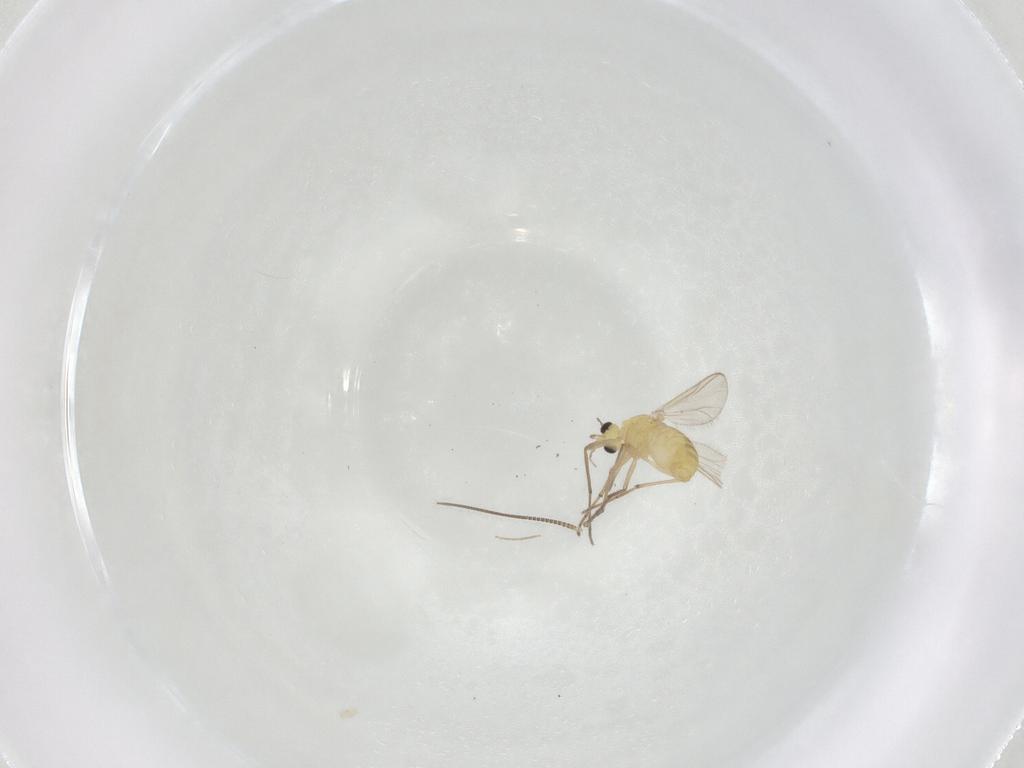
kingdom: Animalia
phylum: Arthropoda
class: Insecta
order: Diptera
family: Chironomidae
